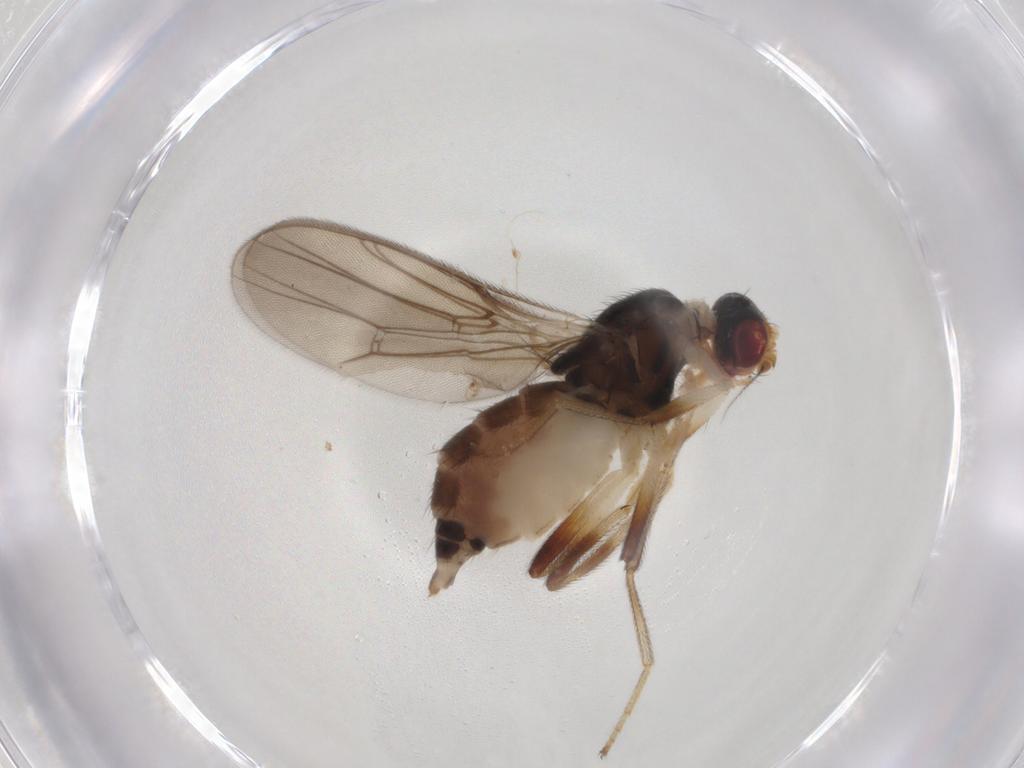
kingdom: Animalia
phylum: Arthropoda
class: Insecta
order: Diptera
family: Chloropidae
